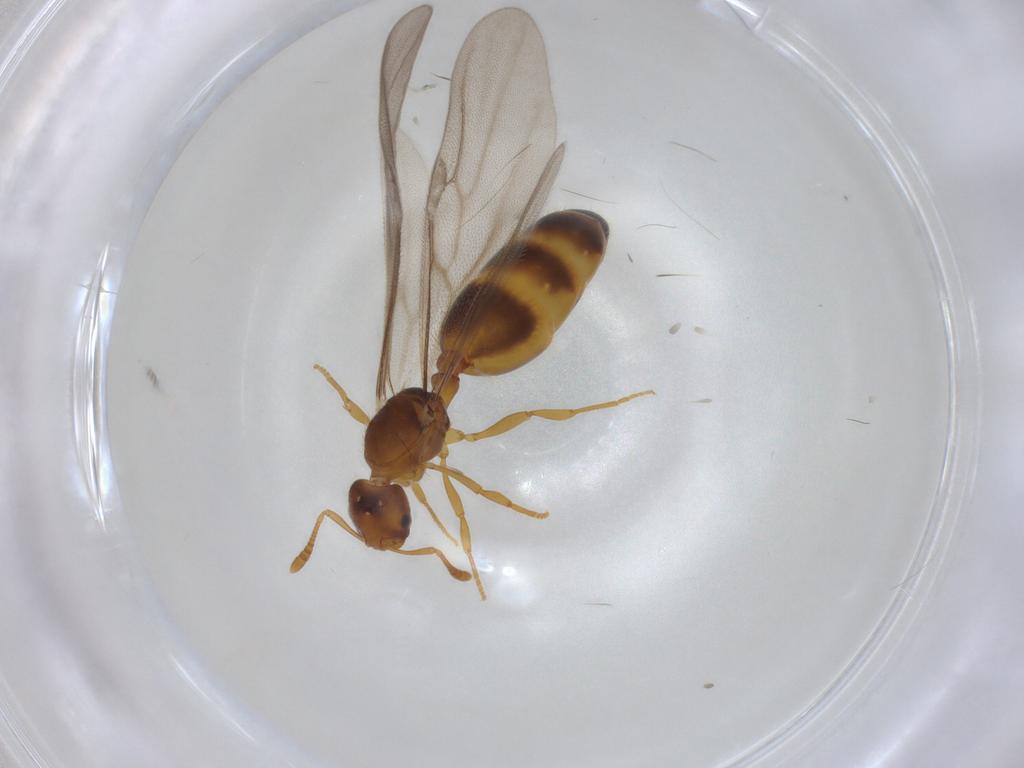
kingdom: Animalia
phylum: Arthropoda
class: Insecta
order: Hymenoptera
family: Formicidae
